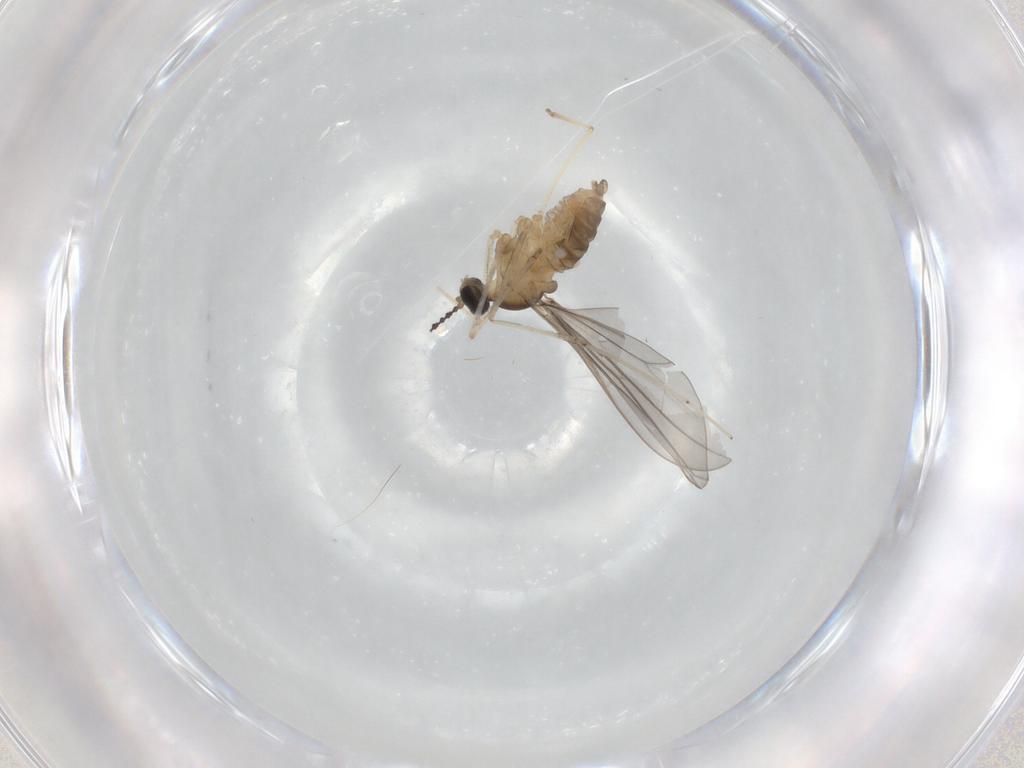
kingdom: Animalia
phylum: Arthropoda
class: Insecta
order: Diptera
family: Cecidomyiidae
